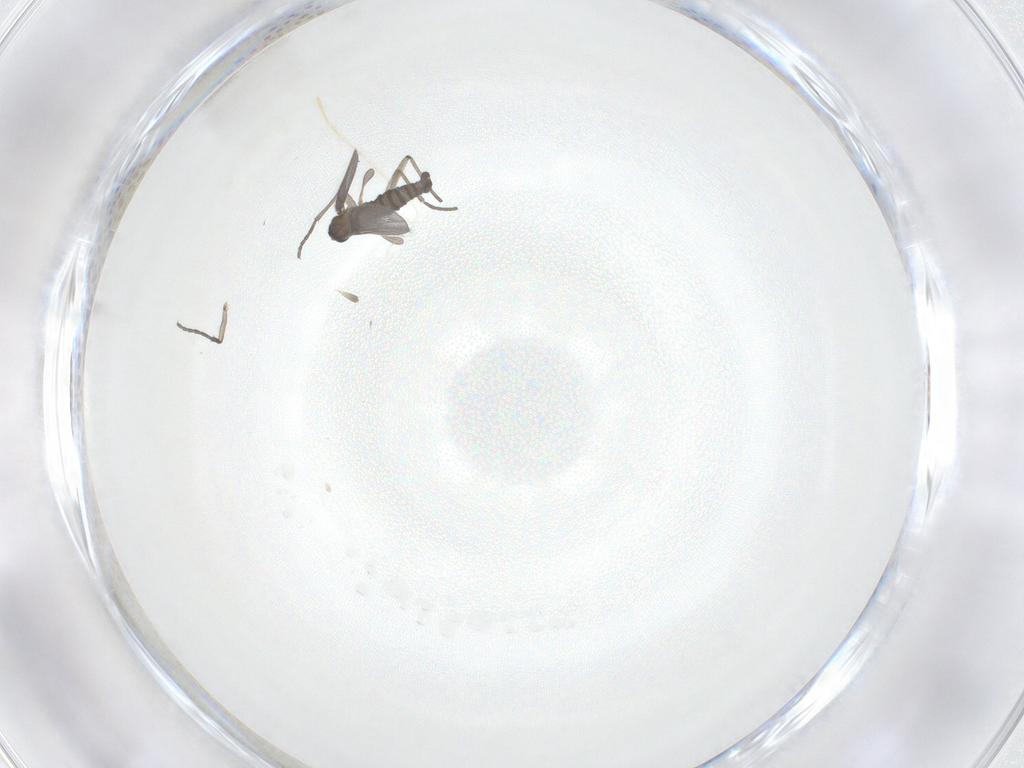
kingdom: Animalia
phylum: Arthropoda
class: Insecta
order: Diptera
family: Sciaridae
